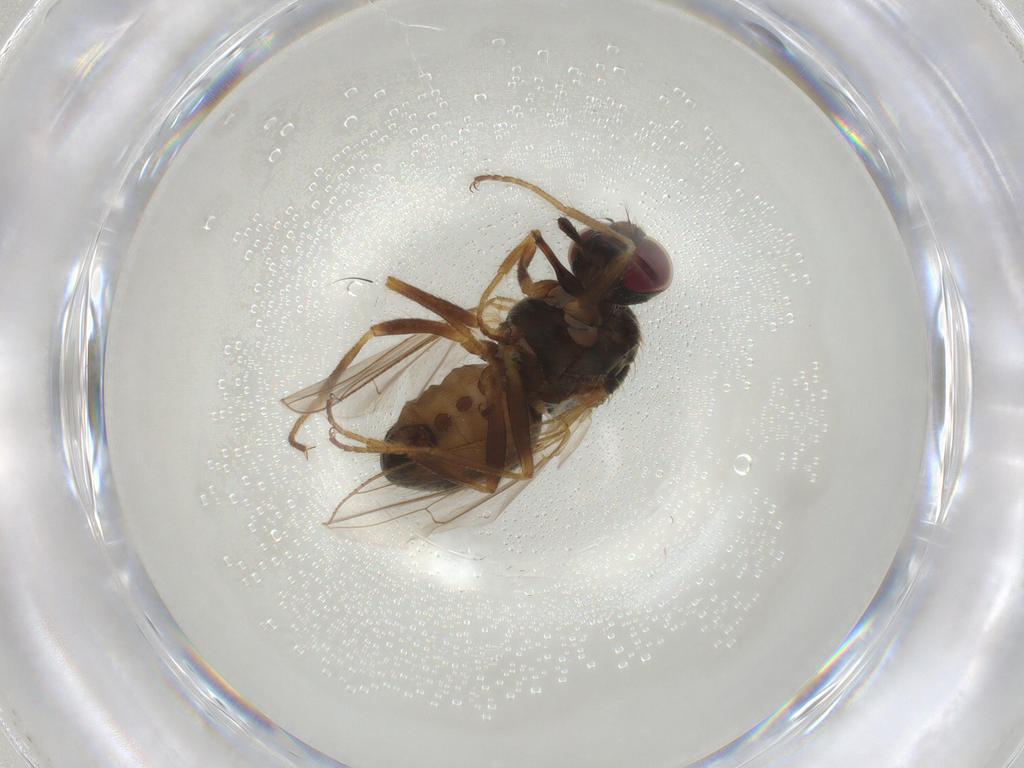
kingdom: Animalia
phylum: Arthropoda
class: Insecta
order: Diptera
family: Muscidae
